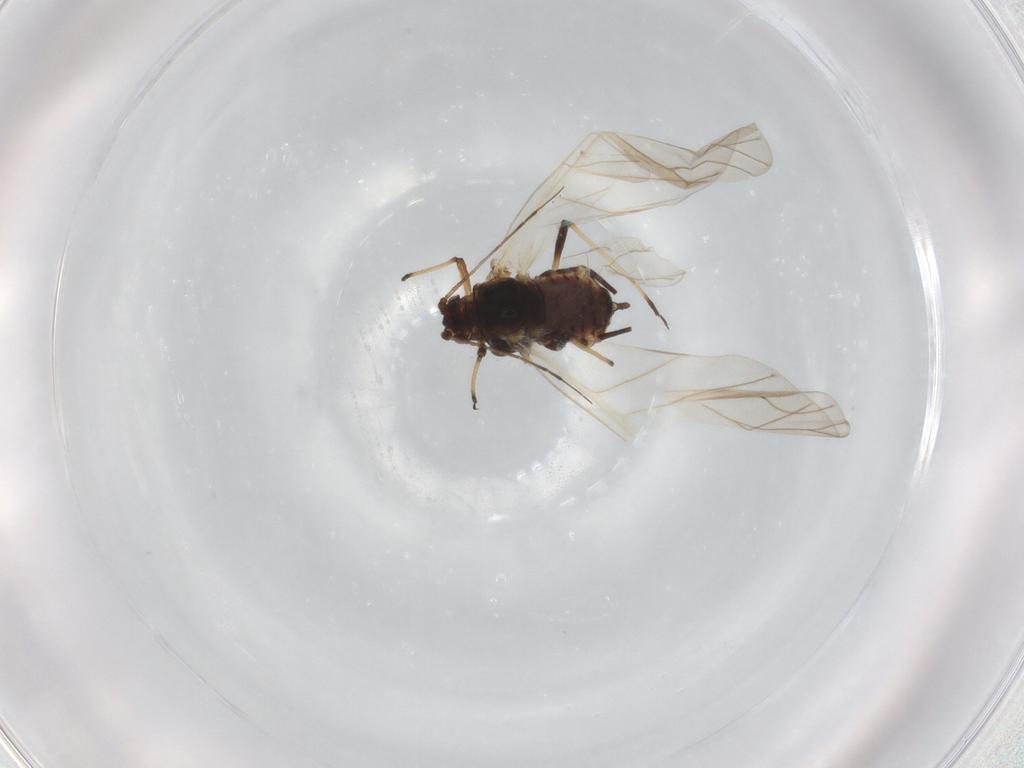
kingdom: Animalia
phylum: Arthropoda
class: Insecta
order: Hemiptera
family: Aphididae
